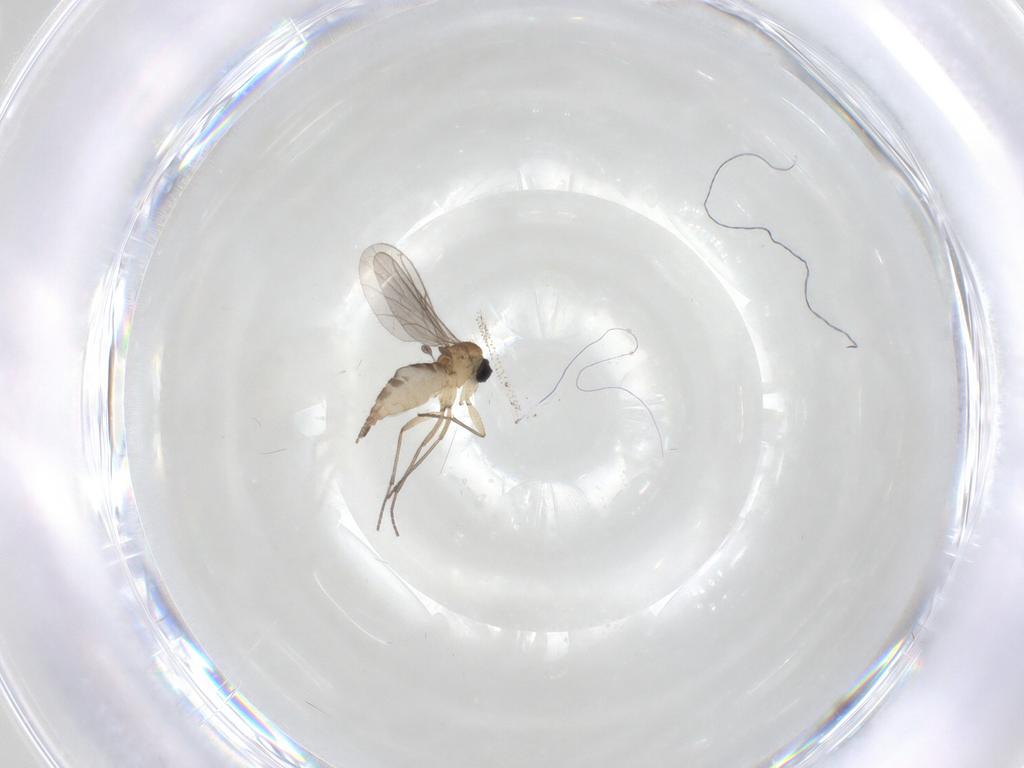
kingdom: Animalia
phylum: Arthropoda
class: Insecta
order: Diptera
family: Sciaridae
